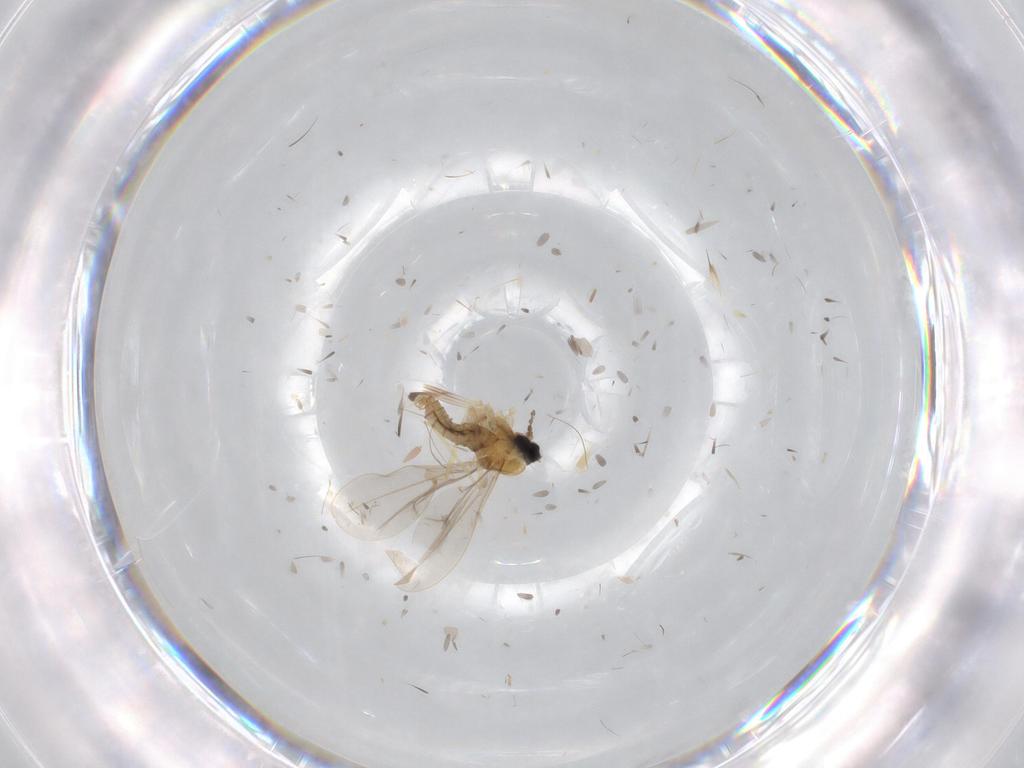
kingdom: Animalia
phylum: Arthropoda
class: Insecta
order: Diptera
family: Cecidomyiidae
